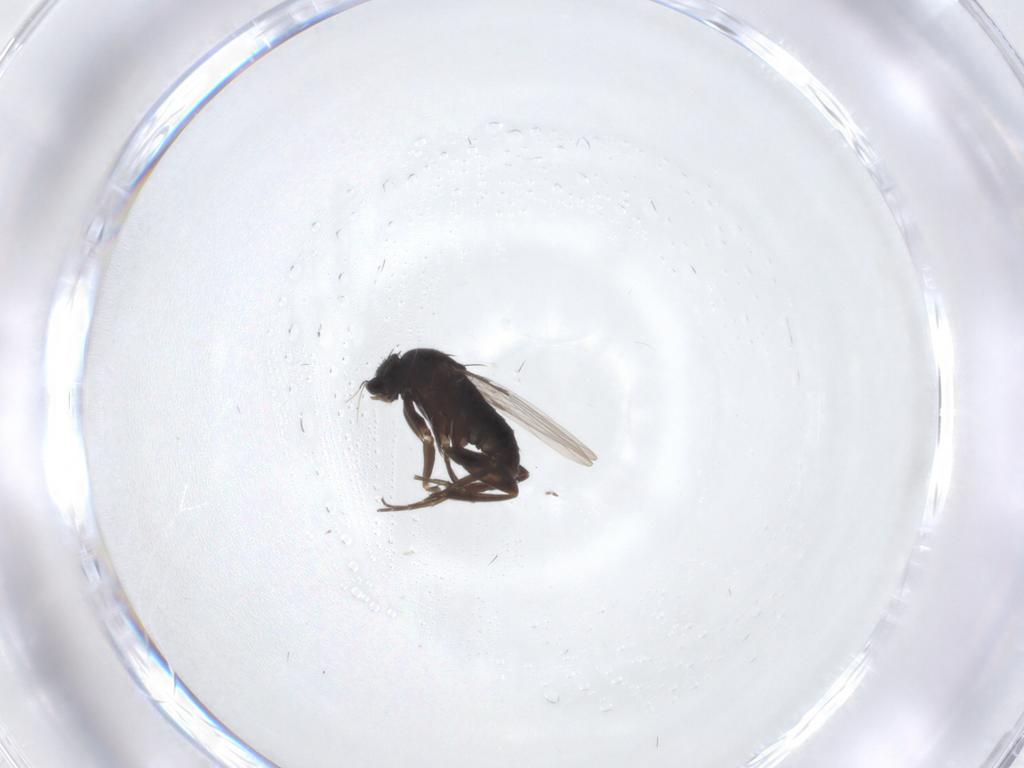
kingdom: Animalia
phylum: Arthropoda
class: Insecta
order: Diptera
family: Phoridae
